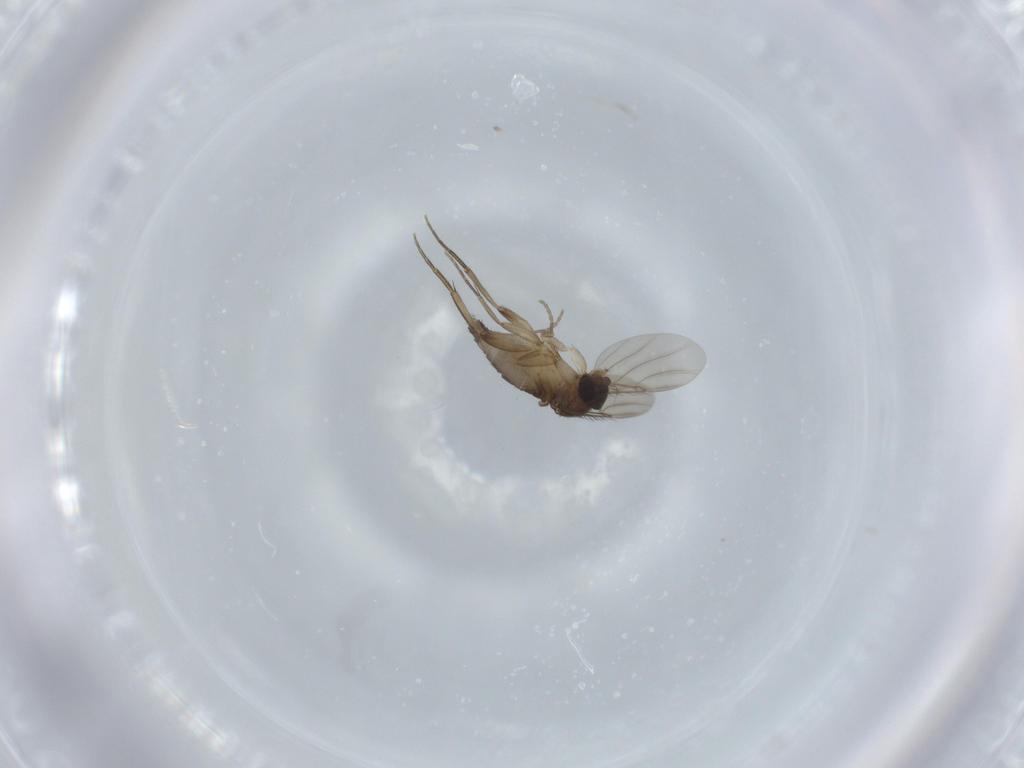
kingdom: Animalia
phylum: Arthropoda
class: Insecta
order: Diptera
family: Phoridae
